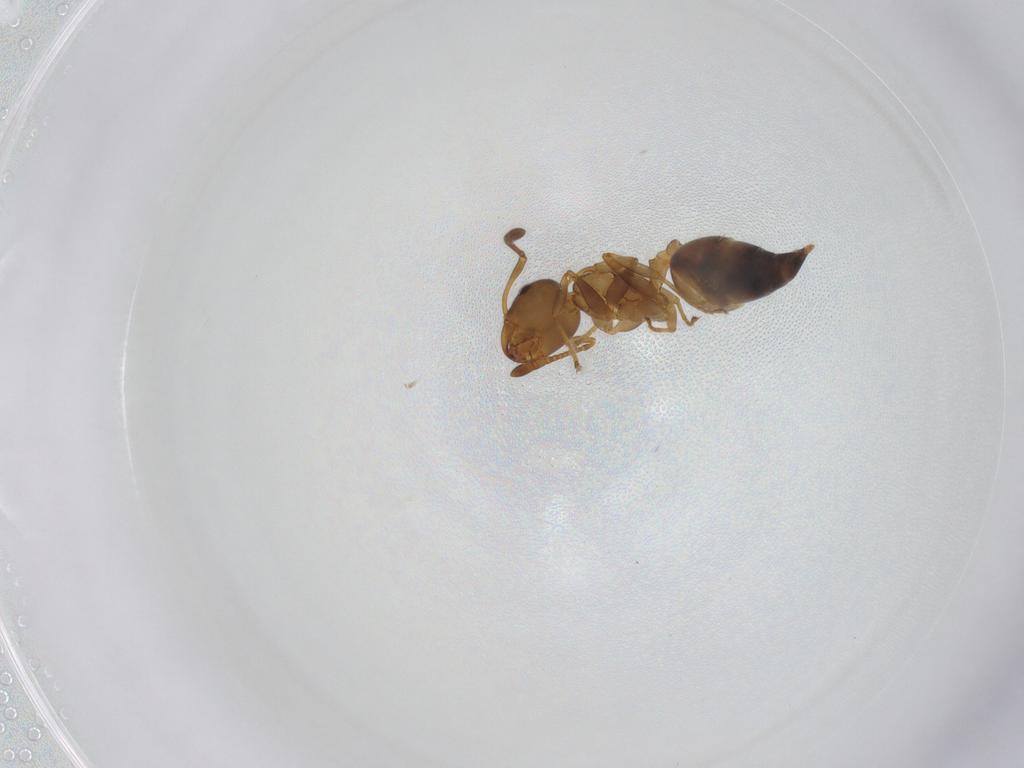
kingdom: Animalia
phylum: Arthropoda
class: Insecta
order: Hymenoptera
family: Formicidae
